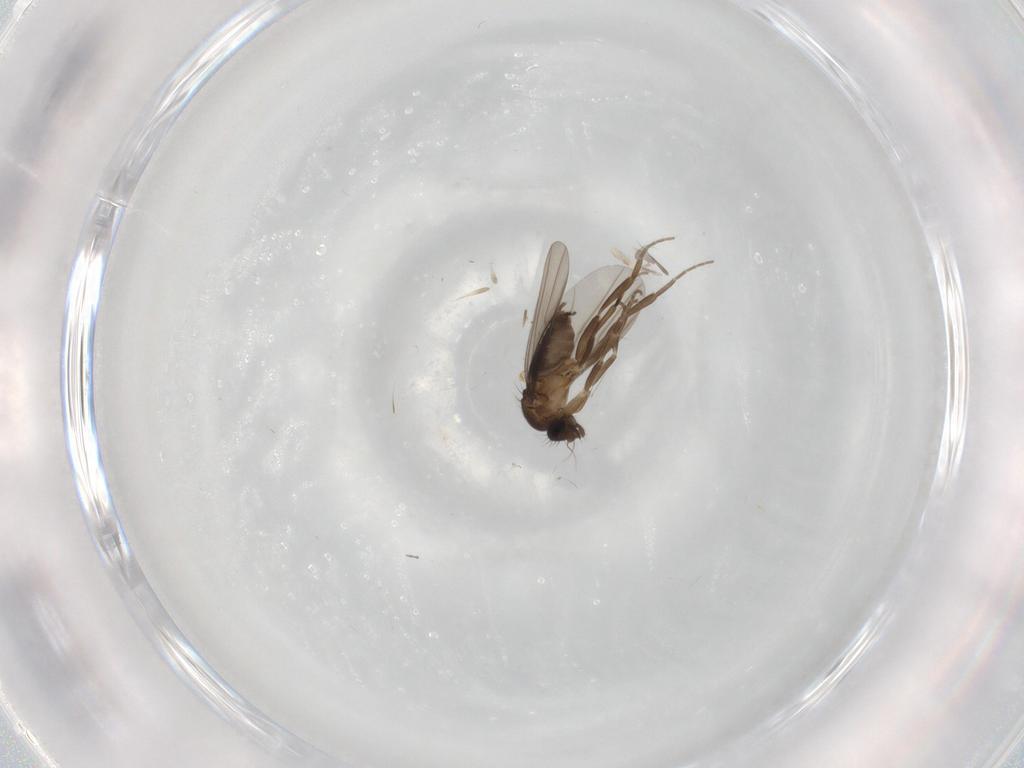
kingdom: Animalia
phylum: Arthropoda
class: Insecta
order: Diptera
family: Phoridae
